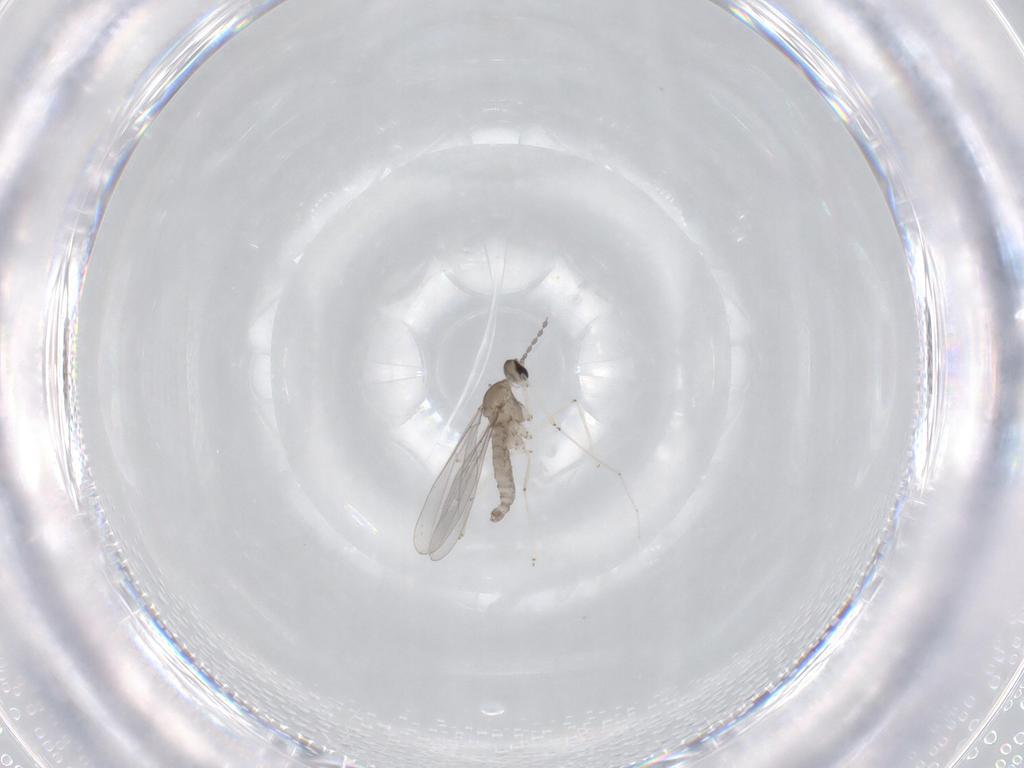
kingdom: Animalia
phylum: Arthropoda
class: Insecta
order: Diptera
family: Cecidomyiidae
